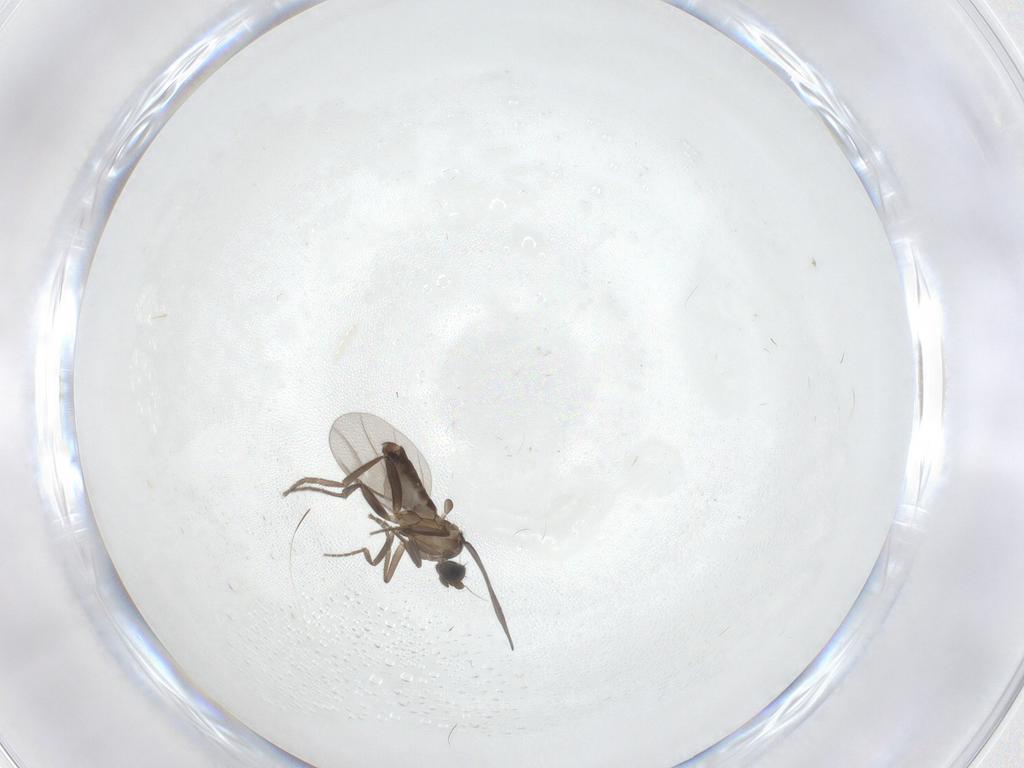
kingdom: Animalia
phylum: Arthropoda
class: Insecta
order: Diptera
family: Phoridae
